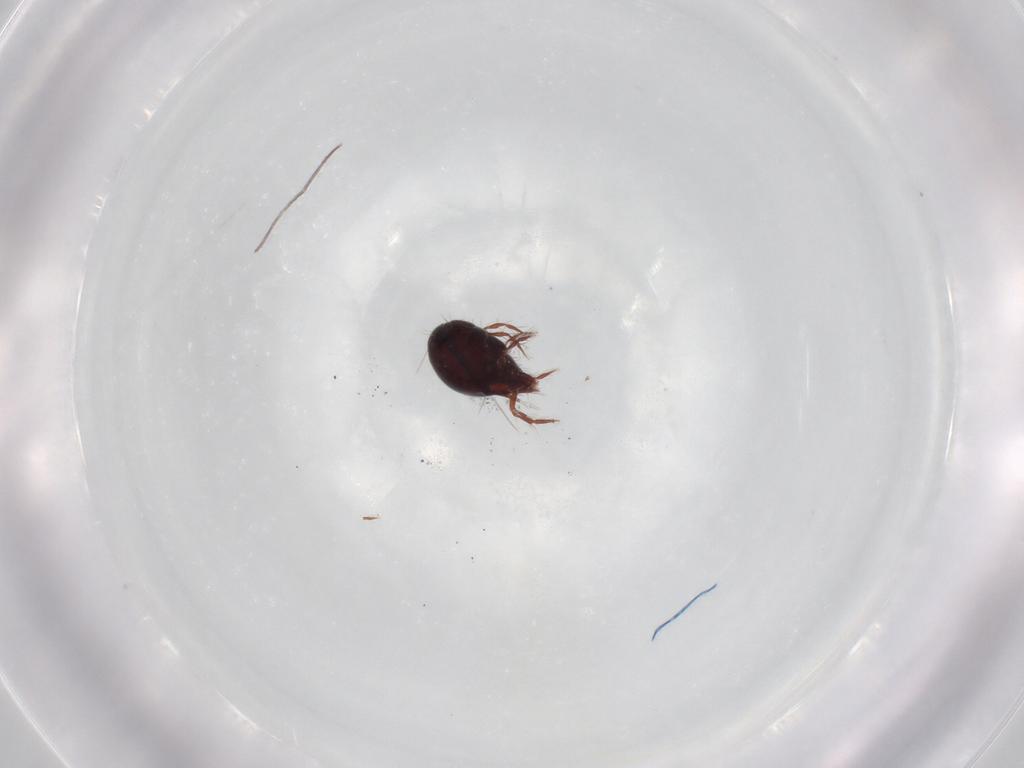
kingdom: Animalia
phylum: Arthropoda
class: Arachnida
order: Sarcoptiformes
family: Ceratoppiidae
